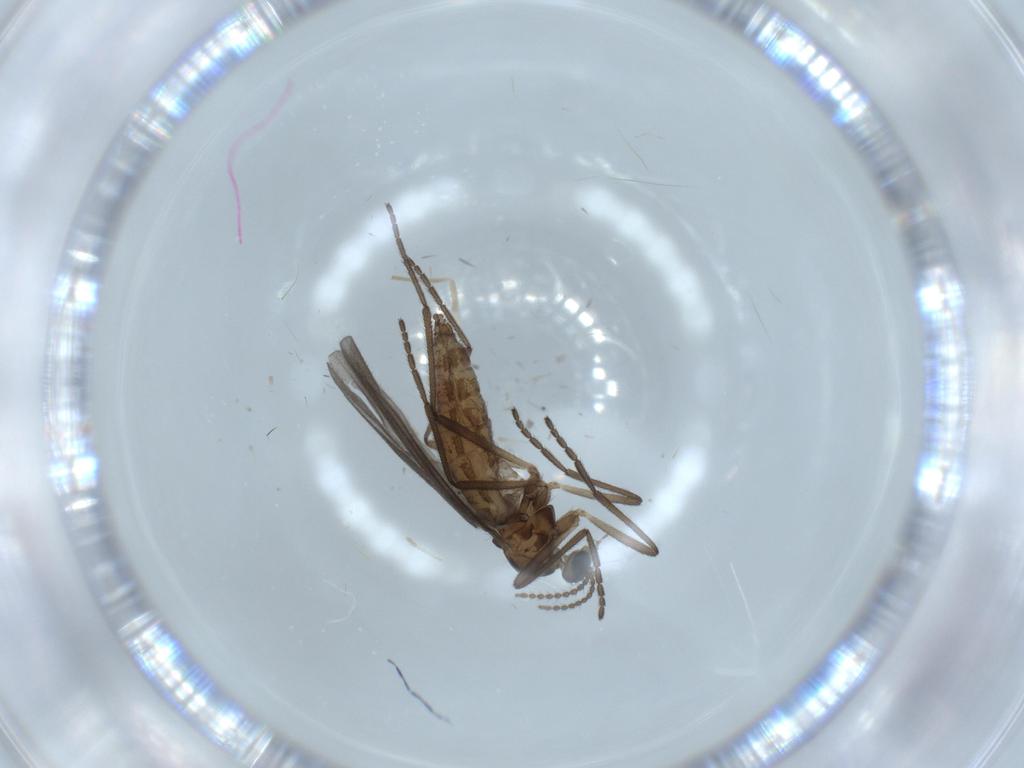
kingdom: Animalia
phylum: Arthropoda
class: Insecta
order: Diptera
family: Cecidomyiidae
